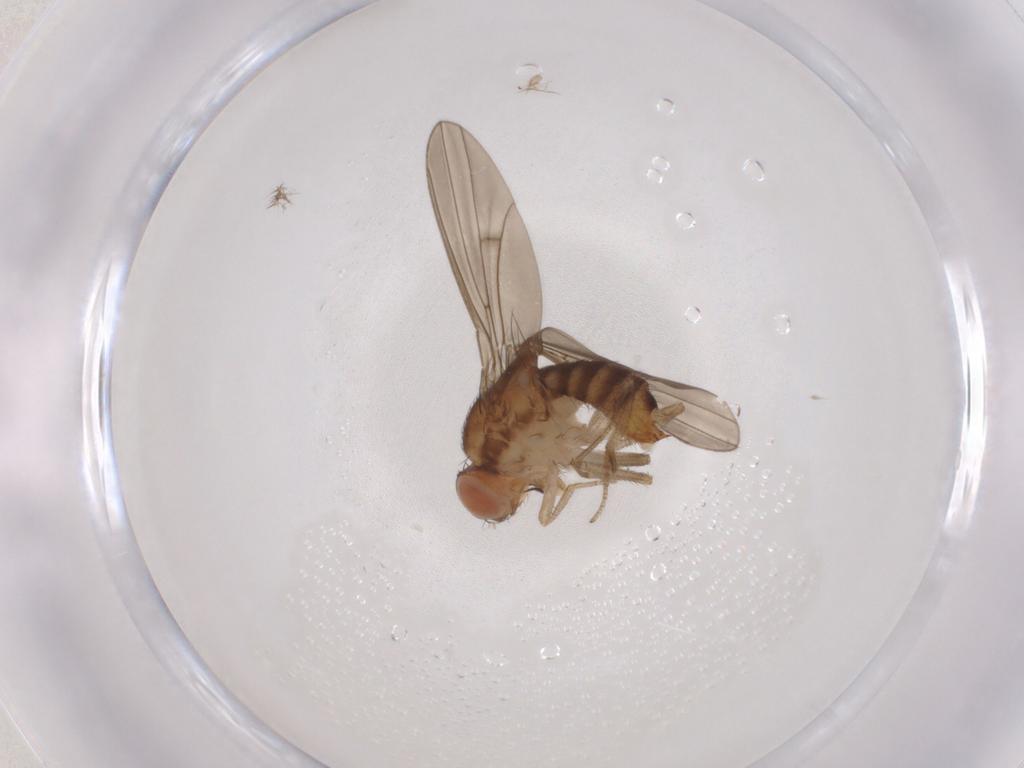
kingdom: Animalia
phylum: Arthropoda
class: Insecta
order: Diptera
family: Muscidae
